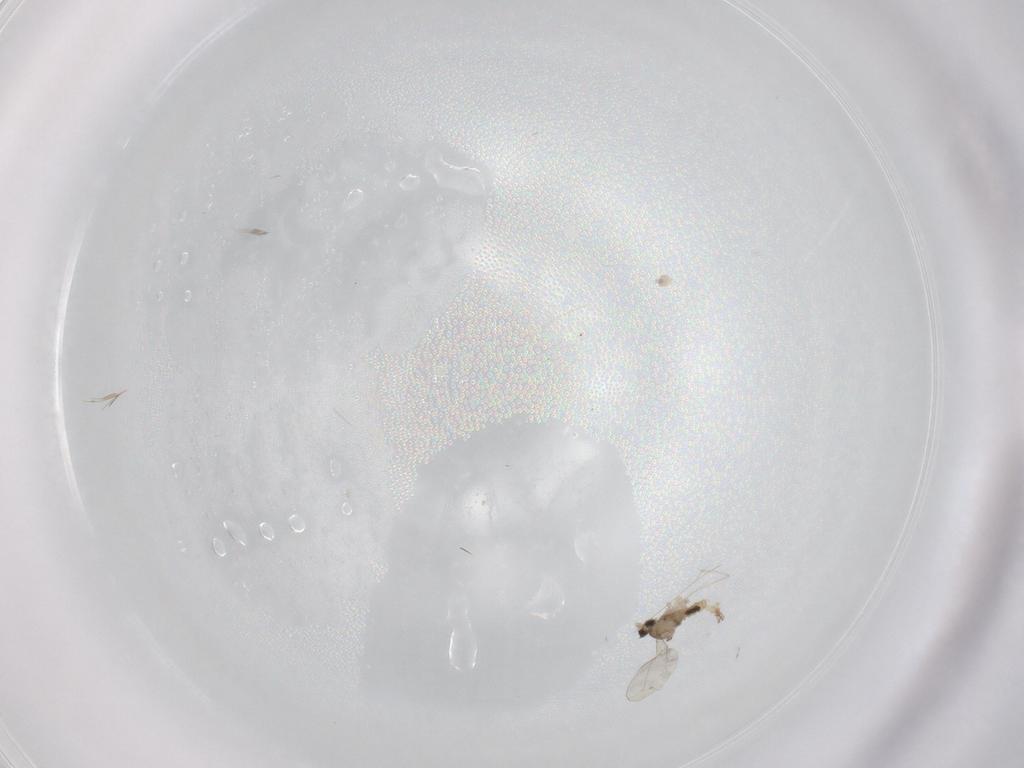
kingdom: Animalia
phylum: Arthropoda
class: Insecta
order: Diptera
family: Cecidomyiidae
